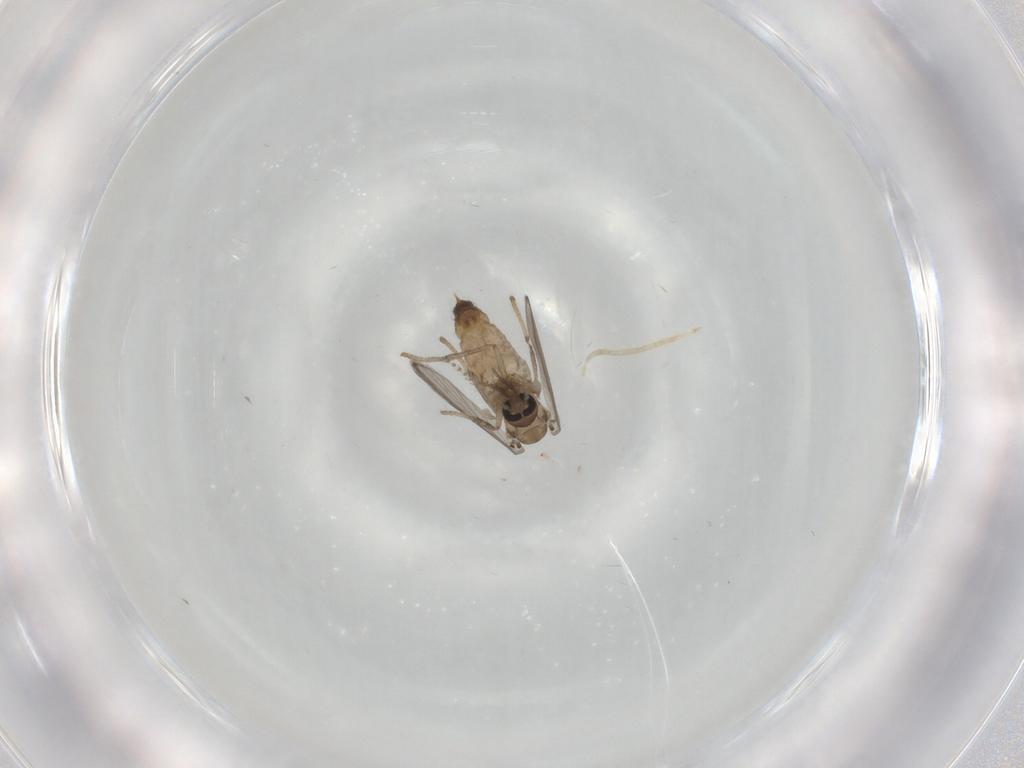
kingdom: Animalia
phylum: Arthropoda
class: Insecta
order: Diptera
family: Psychodidae
